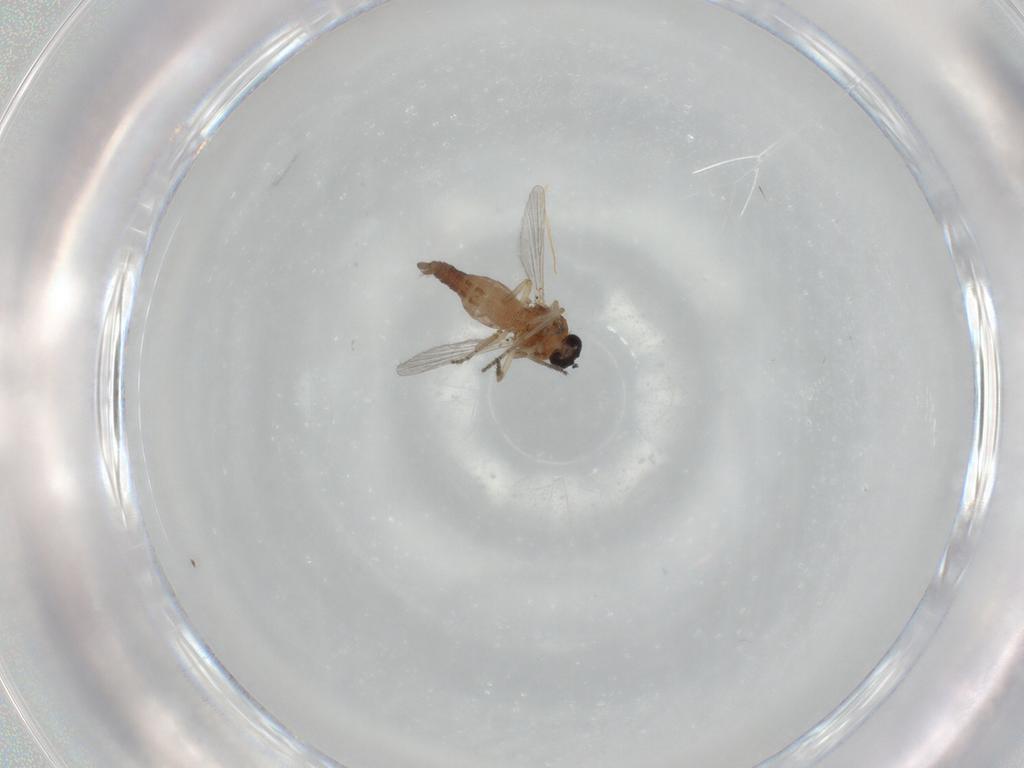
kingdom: Animalia
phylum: Arthropoda
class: Insecta
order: Diptera
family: Ceratopogonidae
